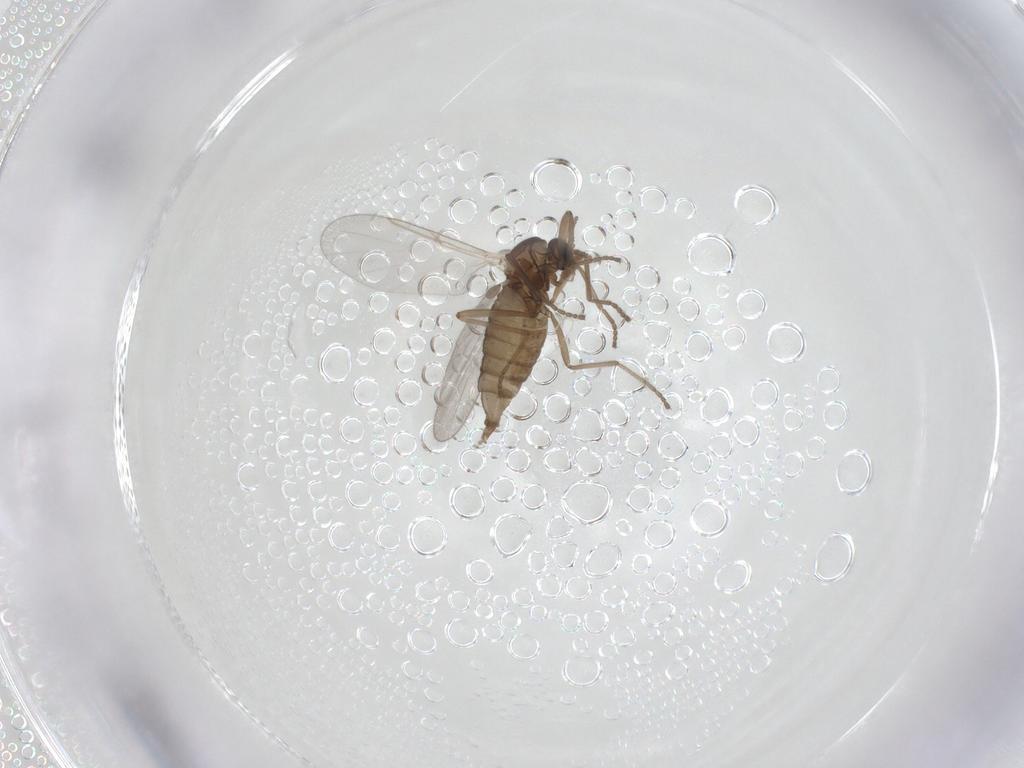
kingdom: Animalia
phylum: Arthropoda
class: Insecta
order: Diptera
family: Cecidomyiidae
